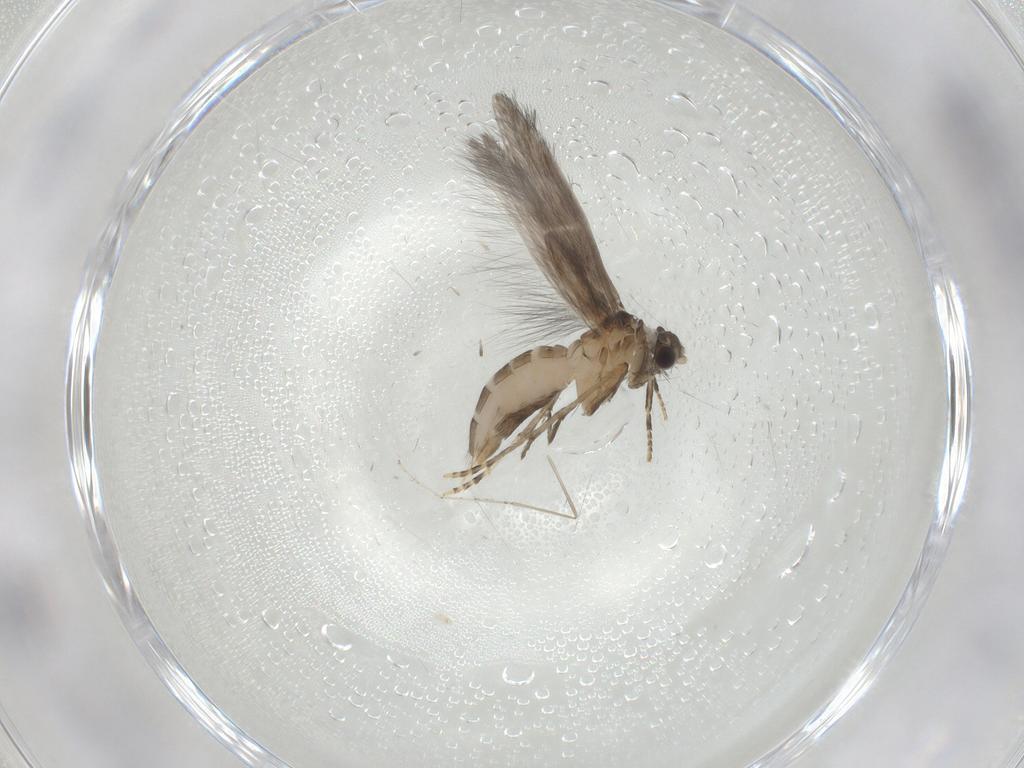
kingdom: Animalia
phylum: Arthropoda
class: Insecta
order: Trichoptera
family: Hydroptilidae
